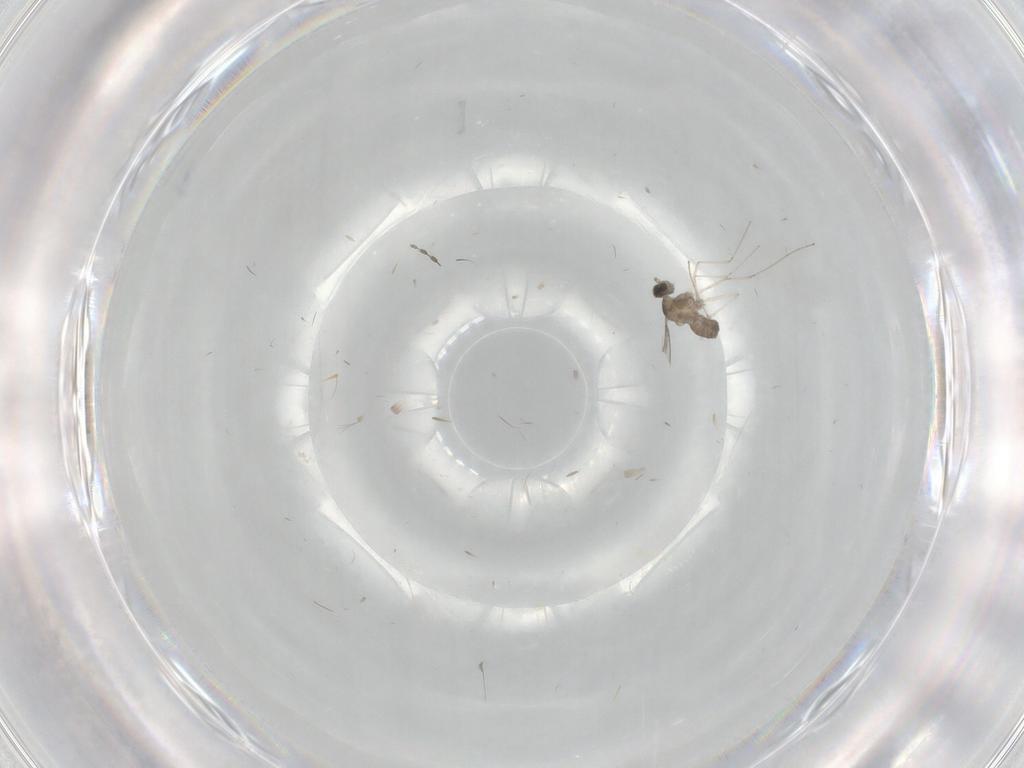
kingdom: Animalia
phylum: Arthropoda
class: Insecta
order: Diptera
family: Cecidomyiidae
